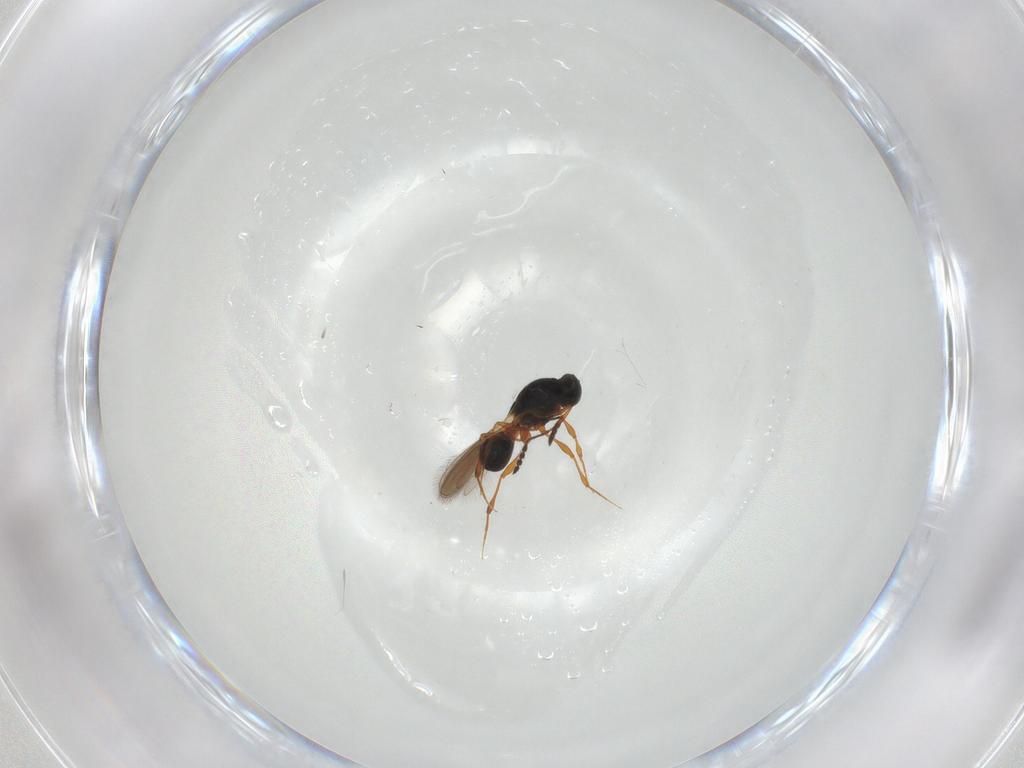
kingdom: Animalia
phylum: Arthropoda
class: Insecta
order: Hymenoptera
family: Platygastridae
